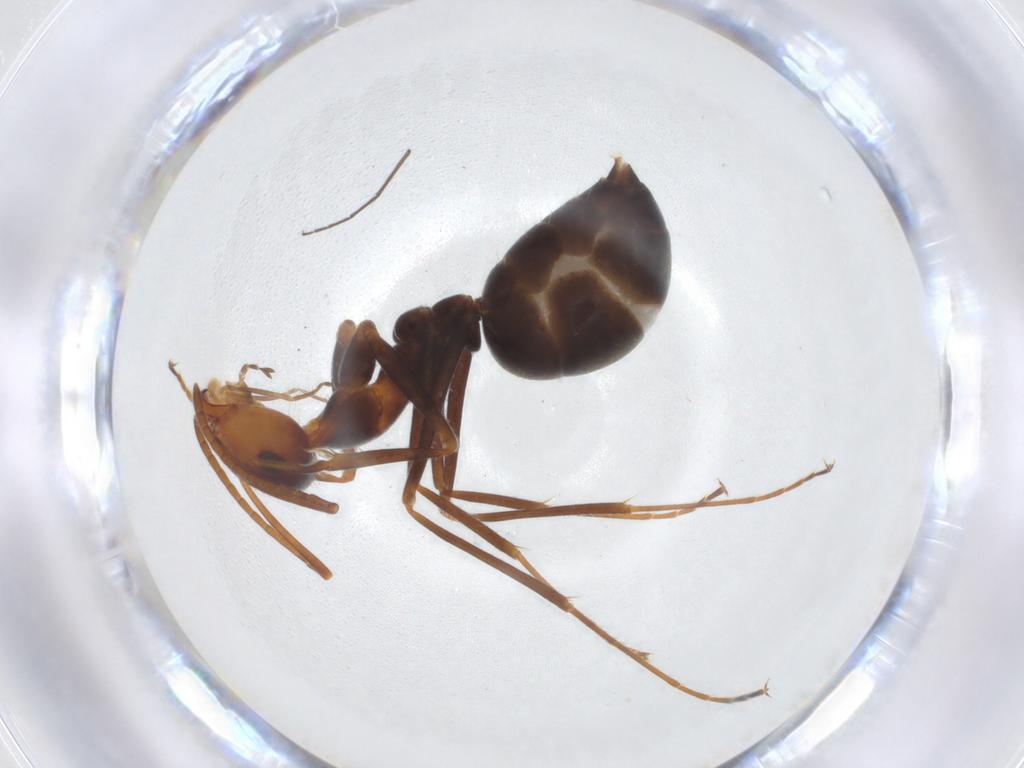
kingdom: Animalia
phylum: Arthropoda
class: Insecta
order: Hymenoptera
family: Formicidae
